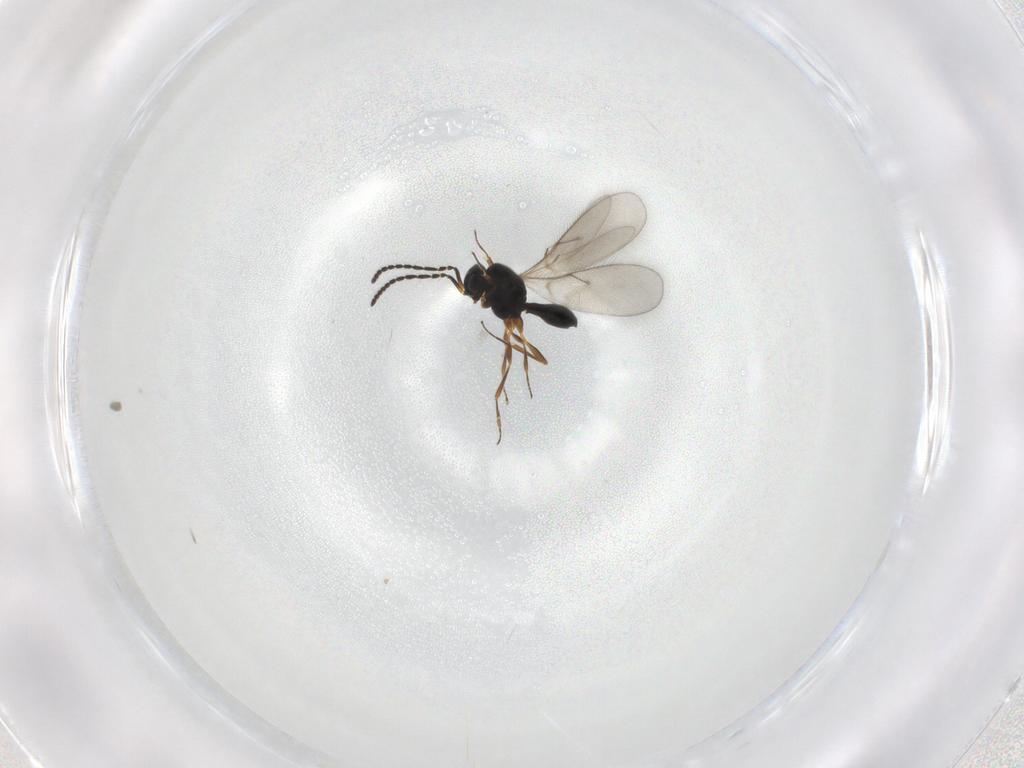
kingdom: Animalia
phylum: Arthropoda
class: Insecta
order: Hymenoptera
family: Scelionidae
